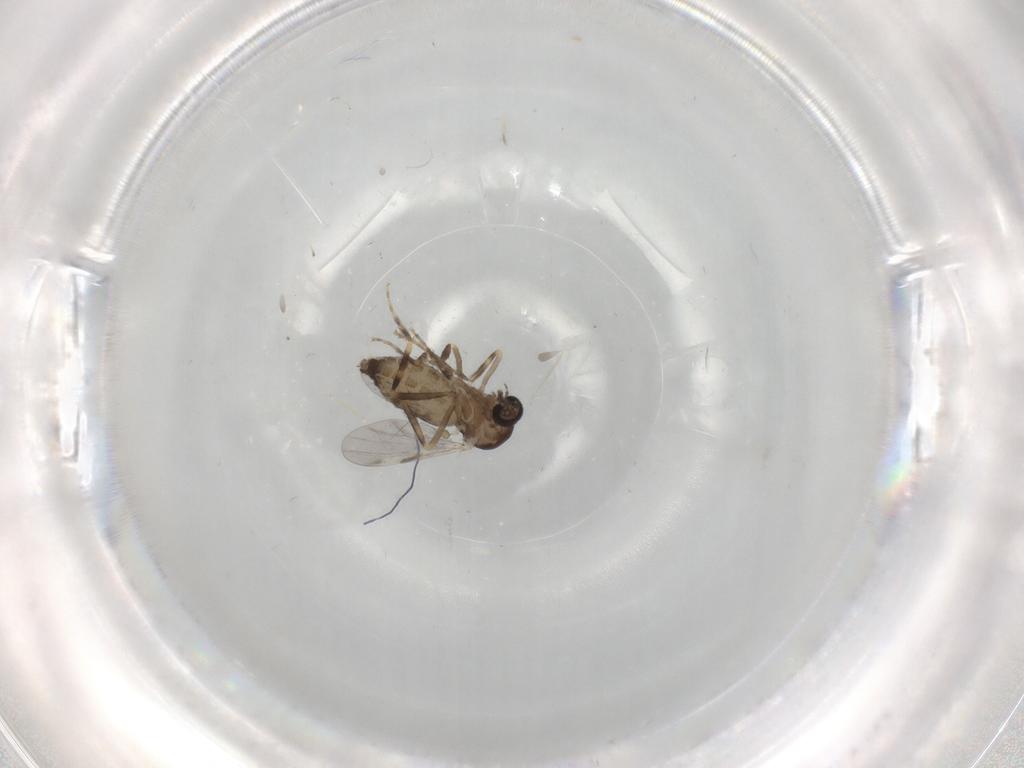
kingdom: Animalia
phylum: Arthropoda
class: Insecta
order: Diptera
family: Ceratopogonidae
